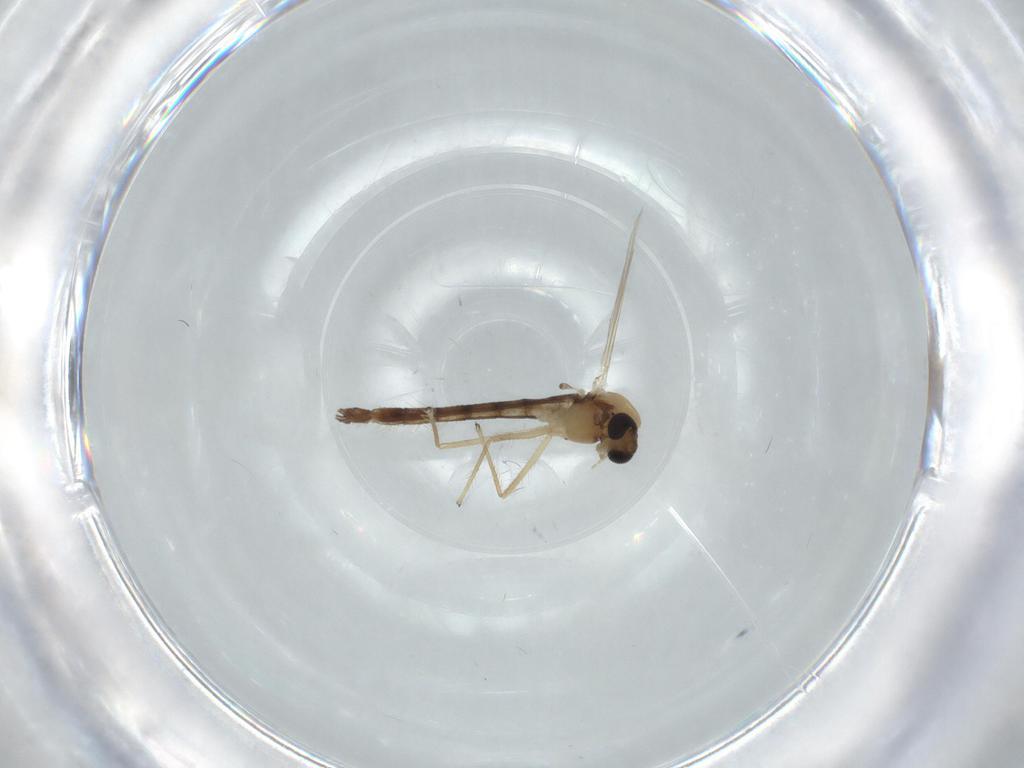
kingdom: Animalia
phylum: Arthropoda
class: Insecta
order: Diptera
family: Chironomidae
